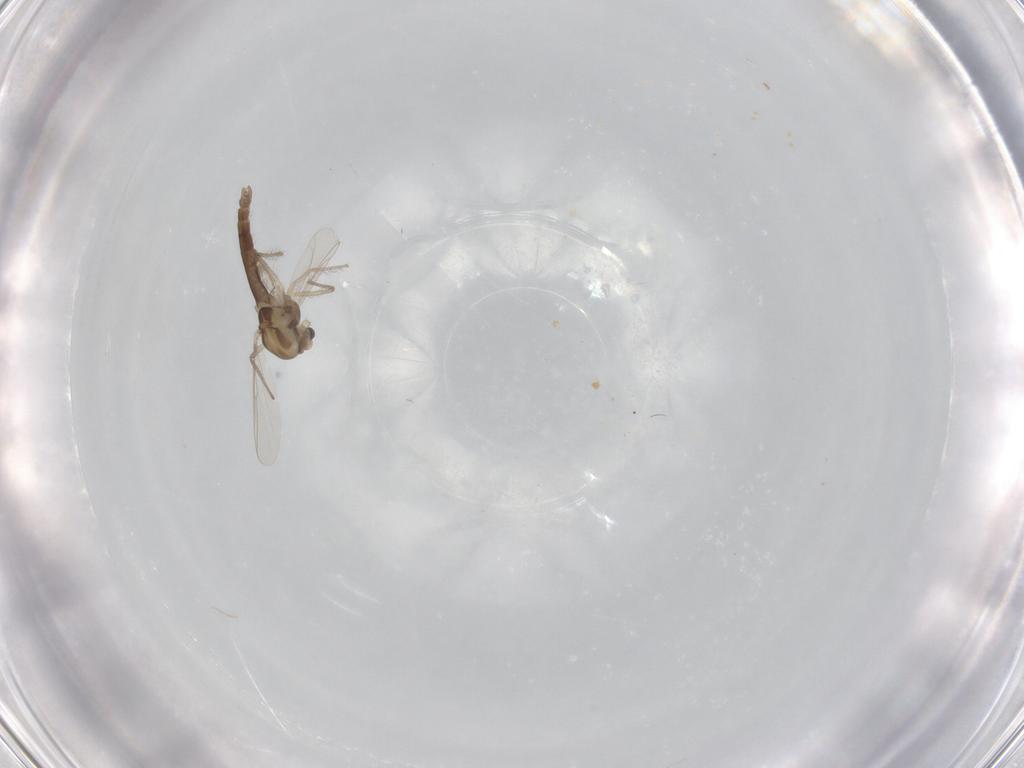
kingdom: Animalia
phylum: Arthropoda
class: Insecta
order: Diptera
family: Chironomidae
